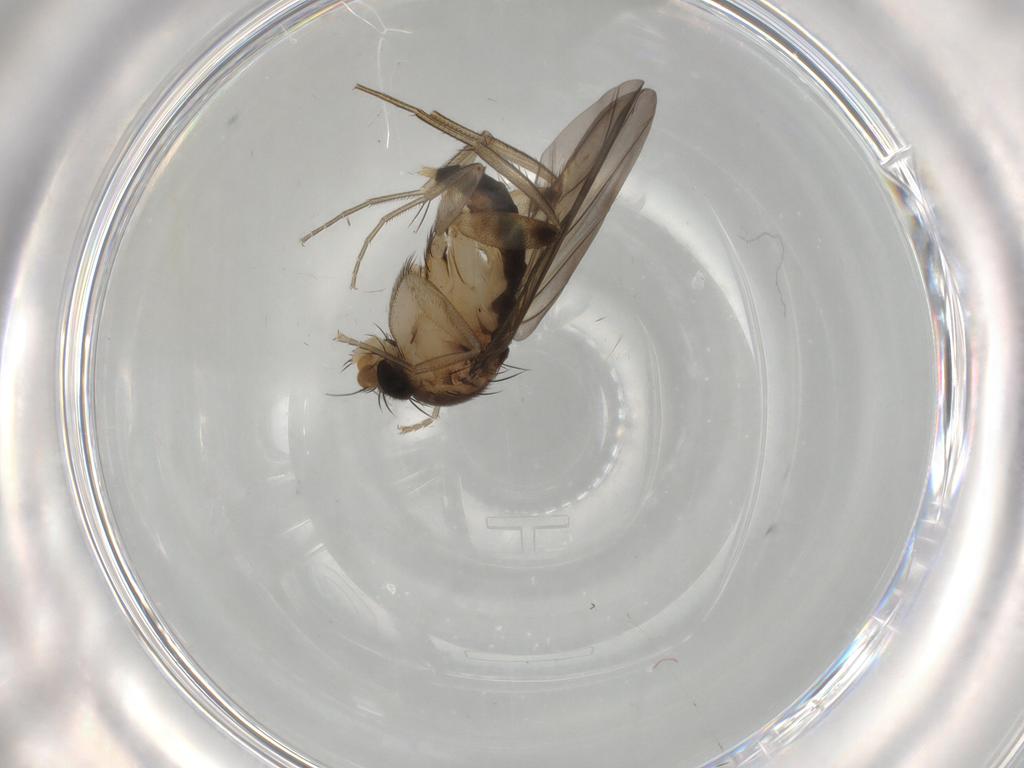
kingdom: Animalia
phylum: Arthropoda
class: Insecta
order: Diptera
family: Phoridae
